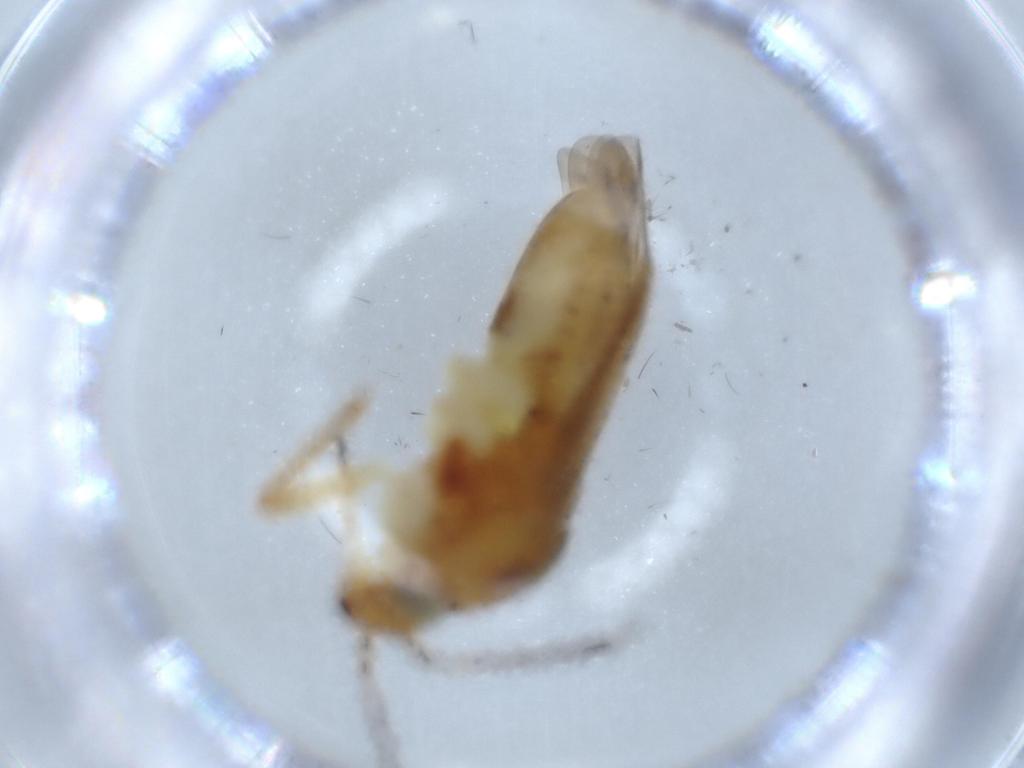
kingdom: Animalia
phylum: Arthropoda
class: Insecta
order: Hemiptera
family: Miridae
